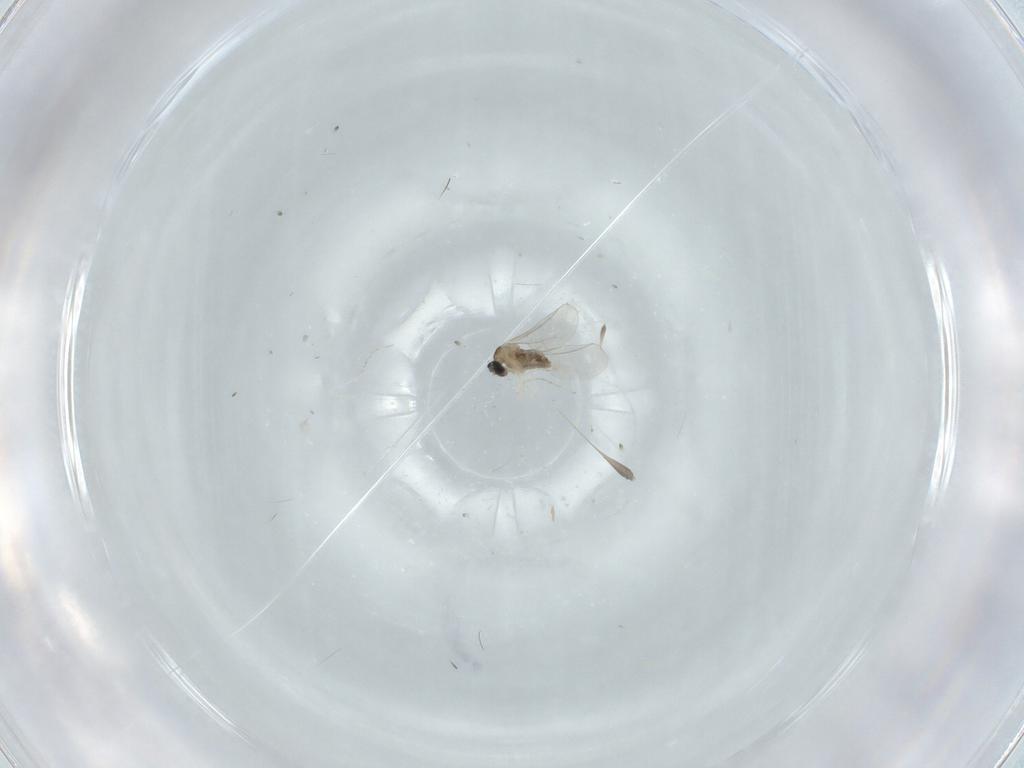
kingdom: Animalia
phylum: Arthropoda
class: Insecta
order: Diptera
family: Cecidomyiidae
